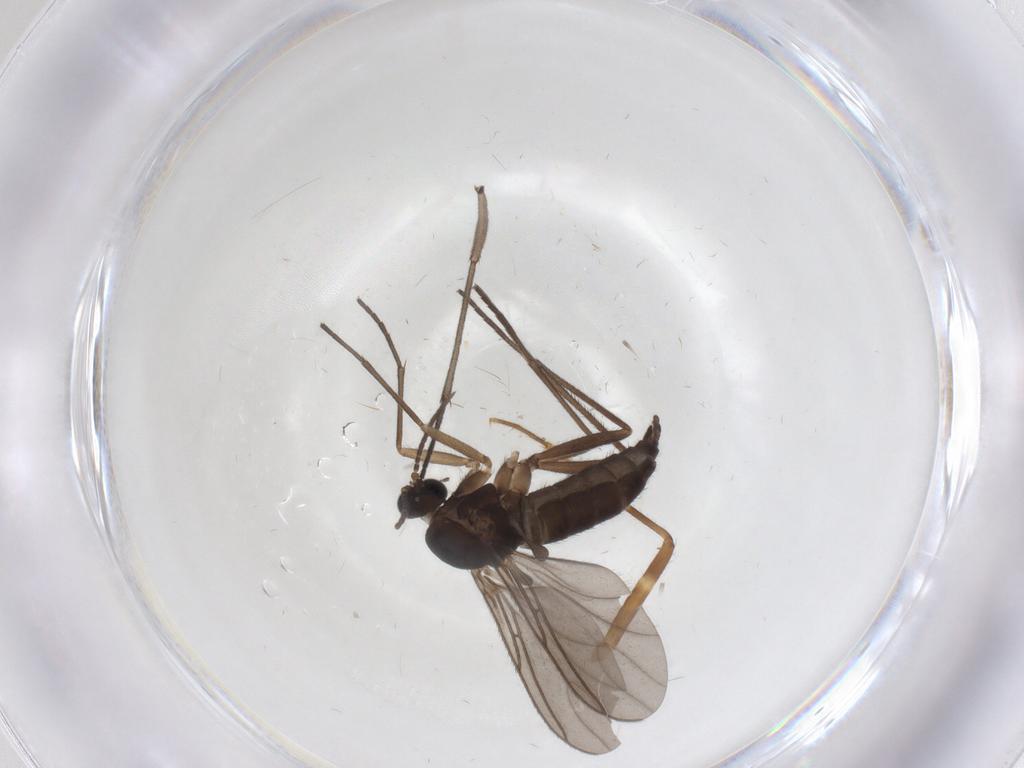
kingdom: Animalia
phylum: Arthropoda
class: Insecta
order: Diptera
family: Sciaridae
